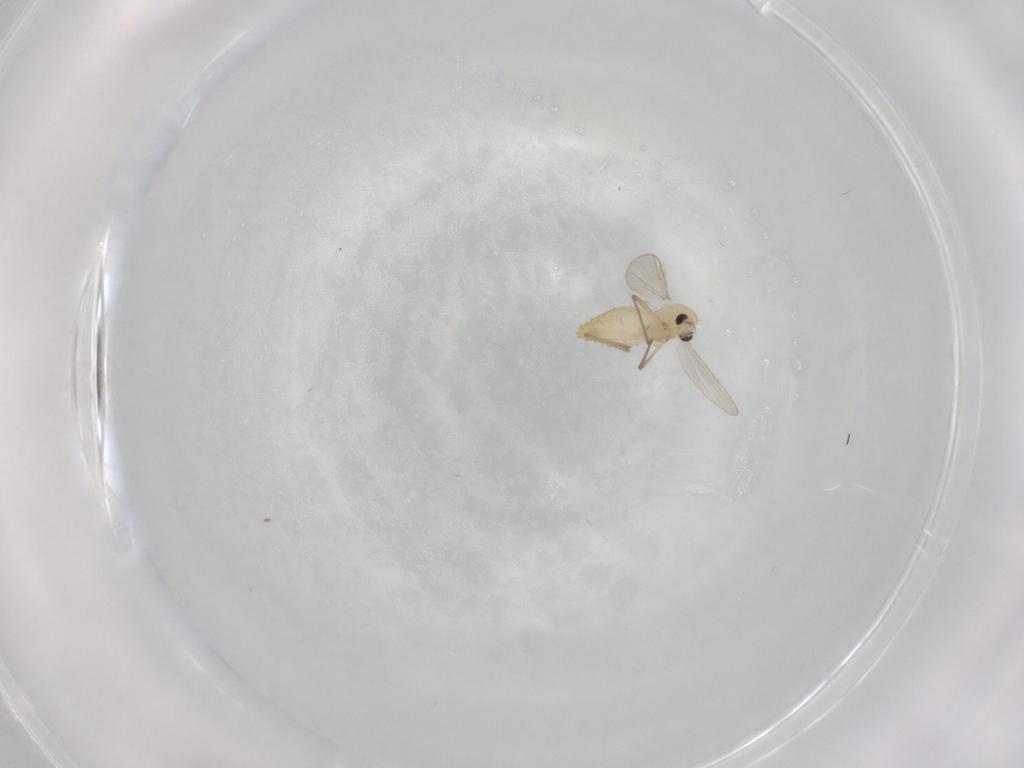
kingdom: Animalia
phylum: Arthropoda
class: Insecta
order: Diptera
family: Chironomidae
